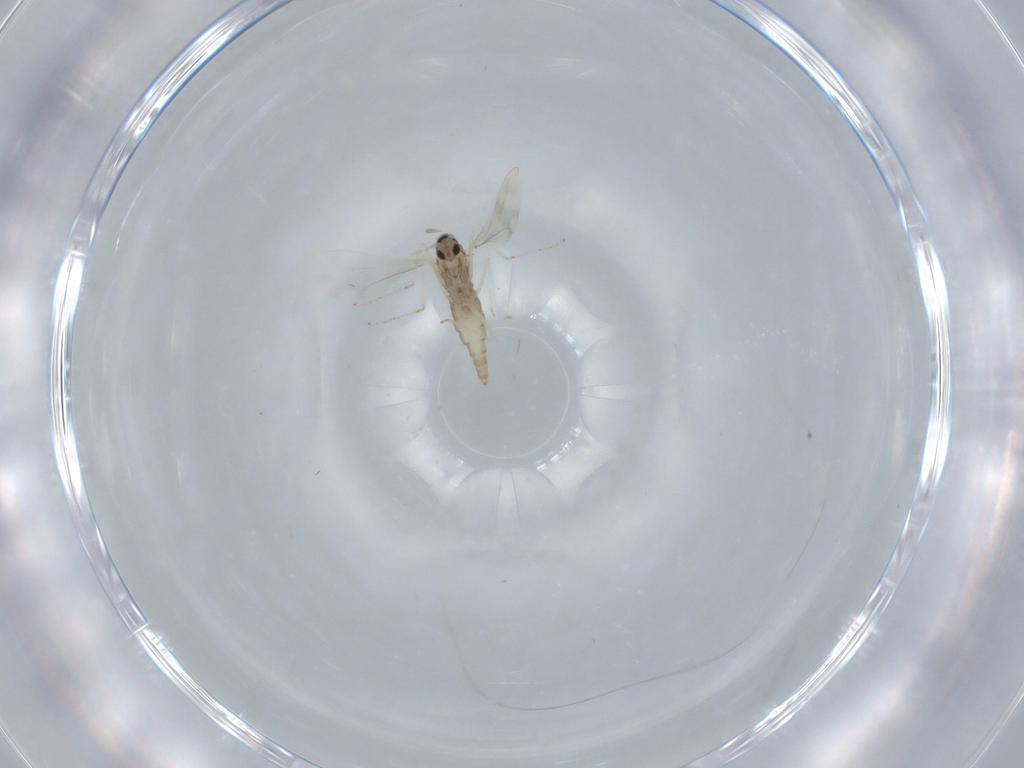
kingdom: Animalia
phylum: Arthropoda
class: Insecta
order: Diptera
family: Cecidomyiidae
